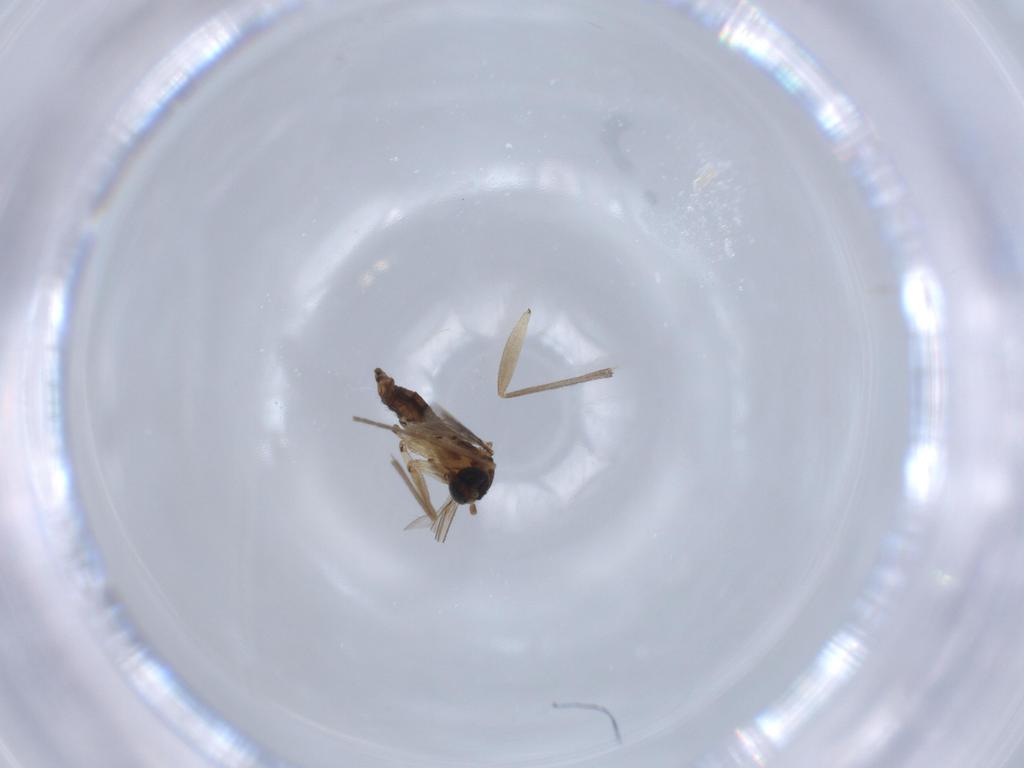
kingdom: Animalia
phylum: Arthropoda
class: Insecta
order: Diptera
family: Sciaridae
